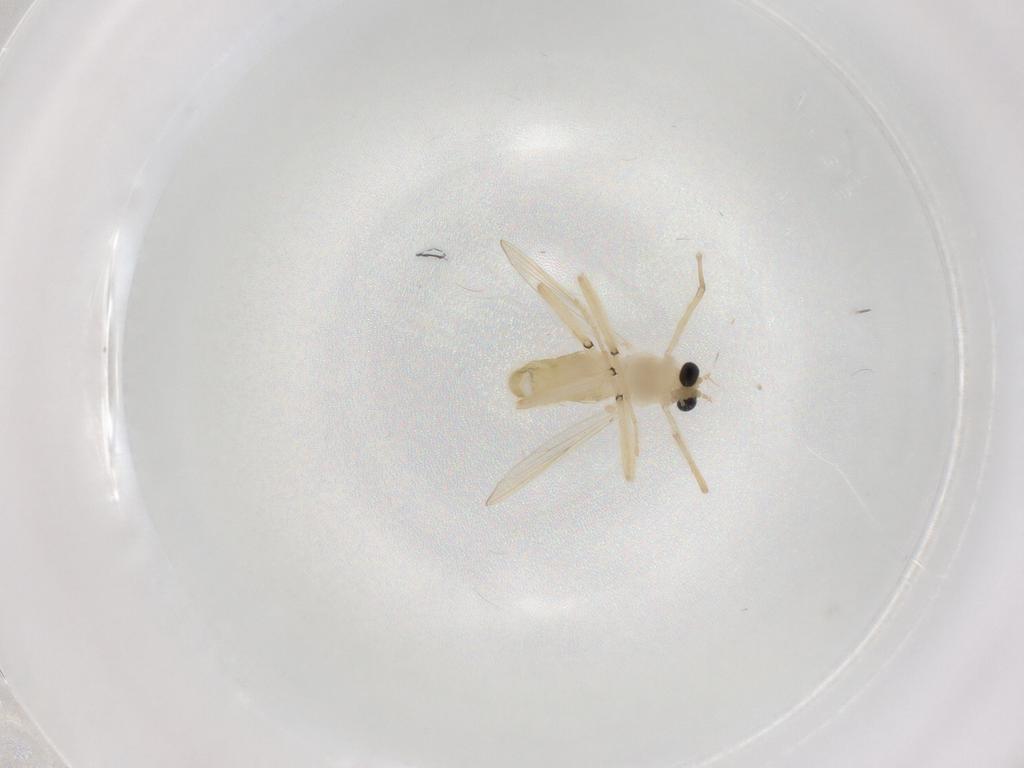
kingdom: Animalia
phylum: Arthropoda
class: Insecta
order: Diptera
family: Chironomidae
